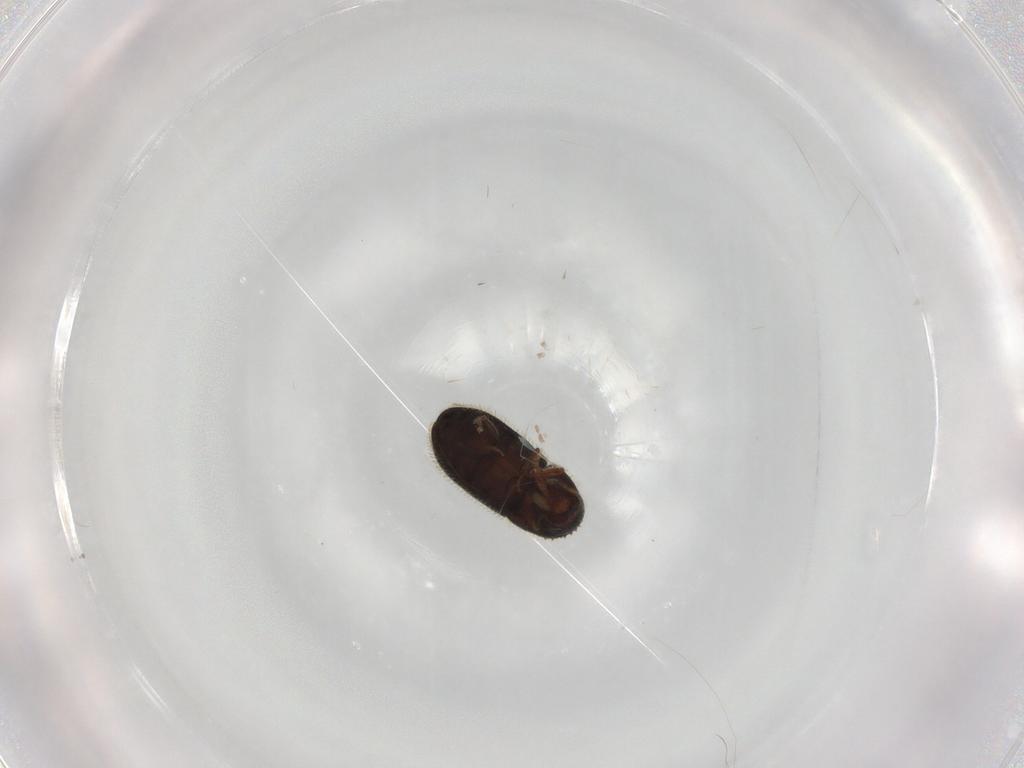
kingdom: Animalia
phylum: Arthropoda
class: Insecta
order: Coleoptera
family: Curculionidae
